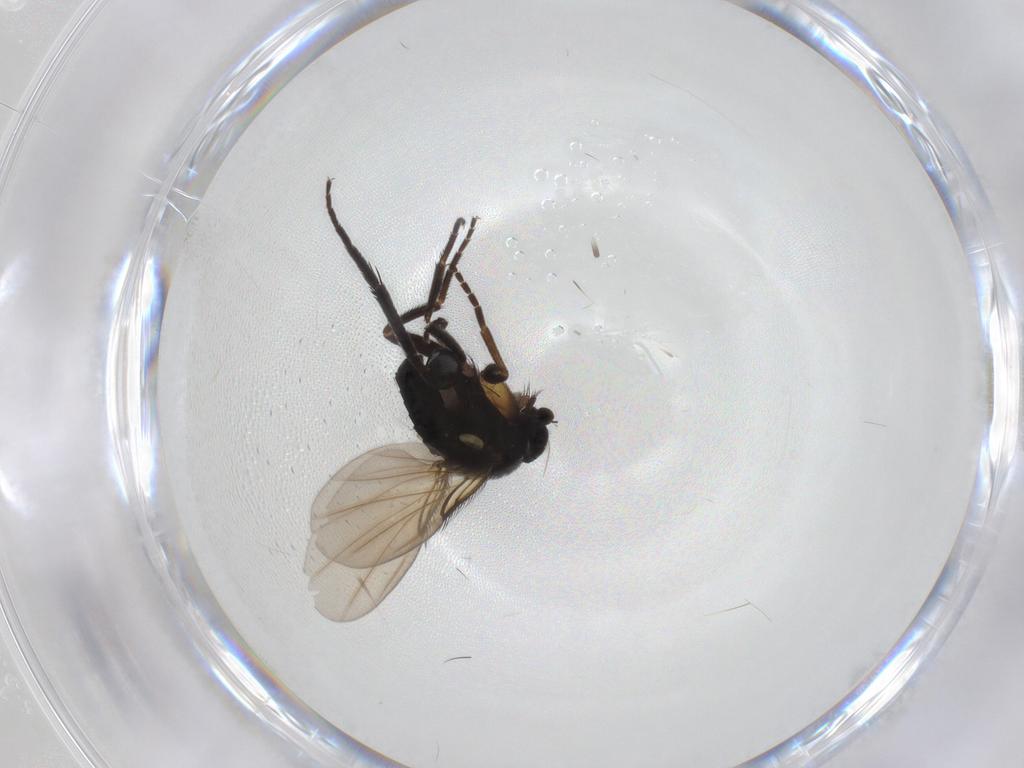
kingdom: Animalia
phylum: Arthropoda
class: Insecta
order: Diptera
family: Phoridae
